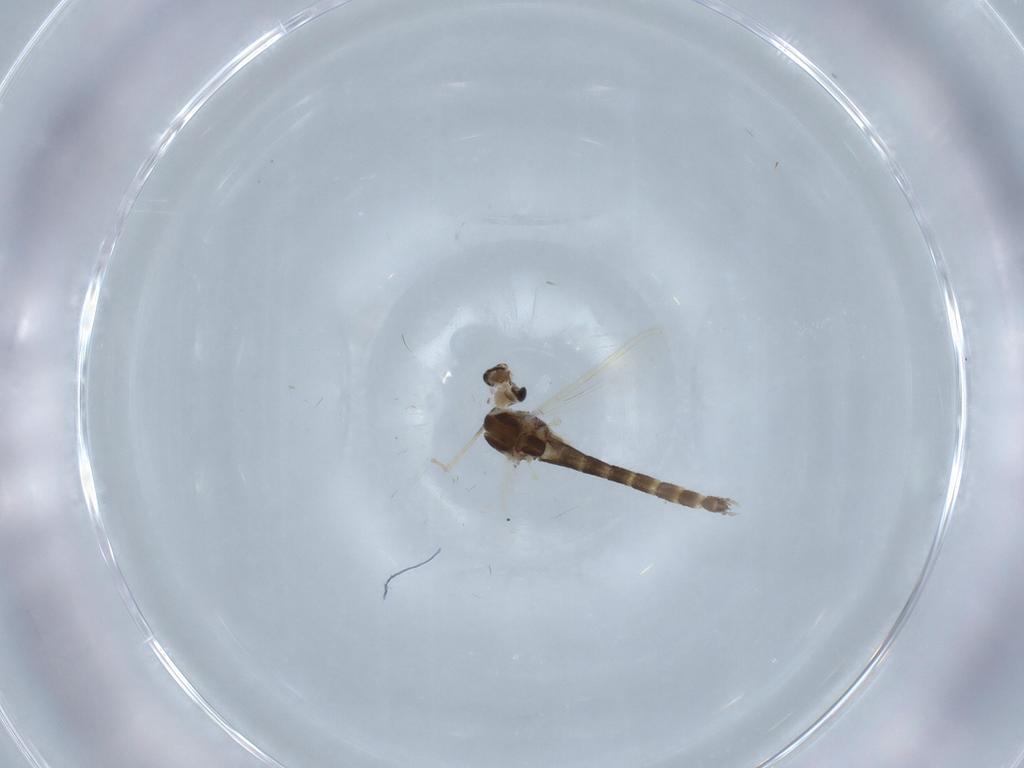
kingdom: Animalia
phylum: Arthropoda
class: Insecta
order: Diptera
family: Chironomidae
